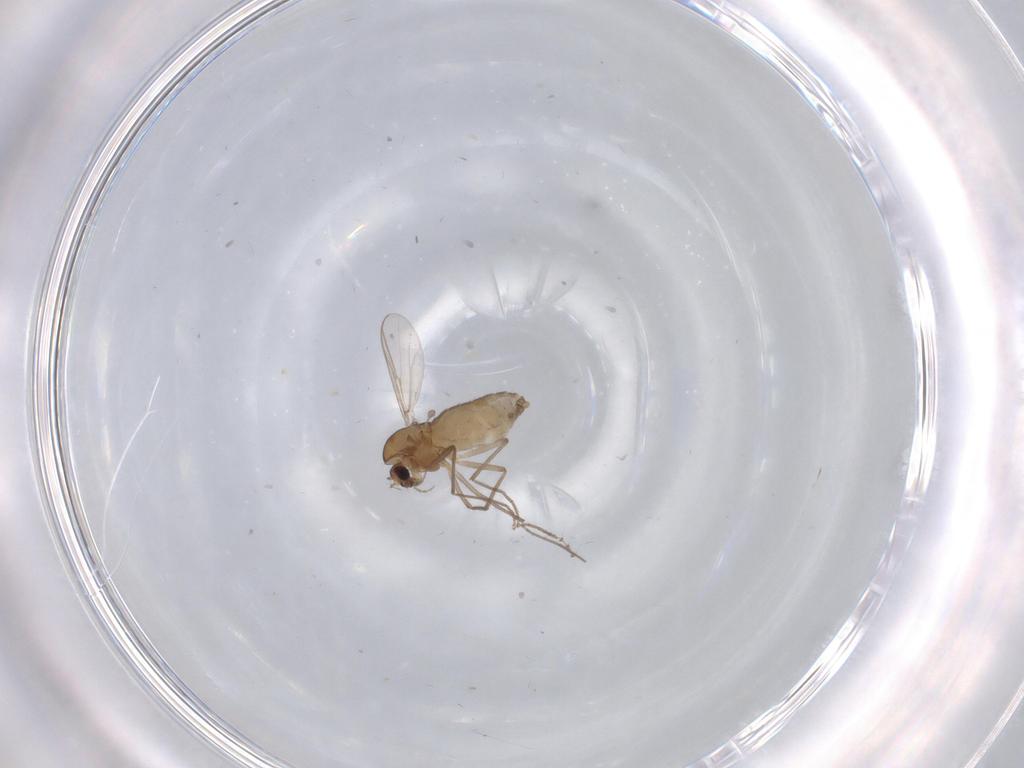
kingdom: Animalia
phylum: Arthropoda
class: Insecta
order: Diptera
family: Chironomidae
